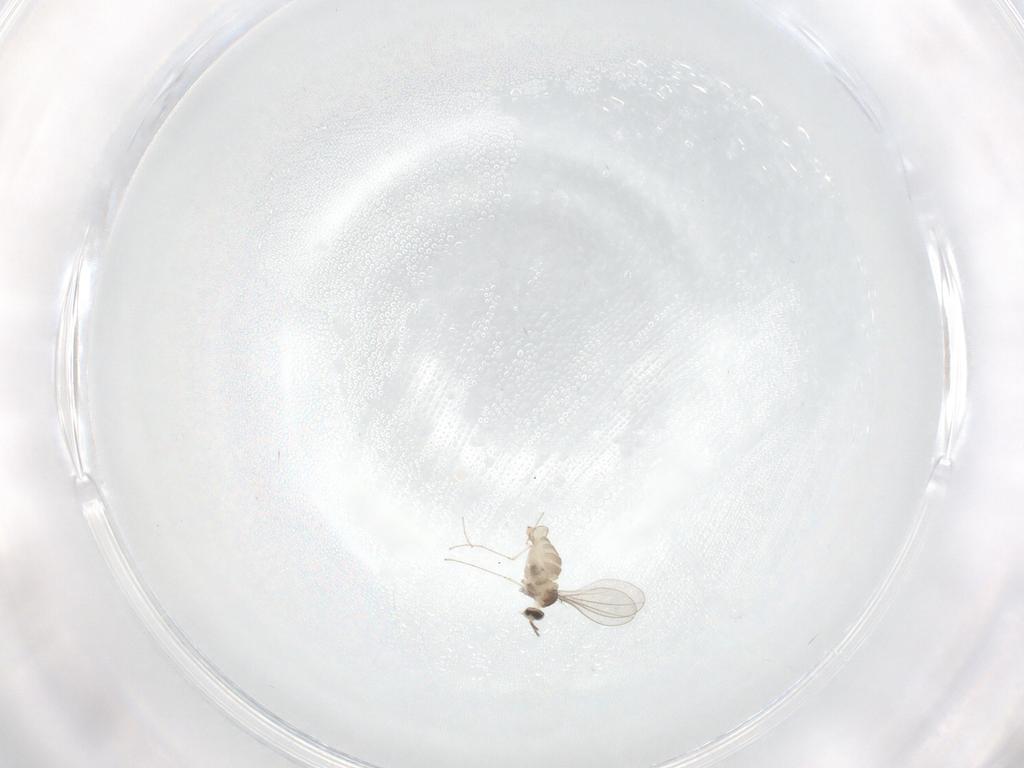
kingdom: Animalia
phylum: Arthropoda
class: Insecta
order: Diptera
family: Cecidomyiidae
